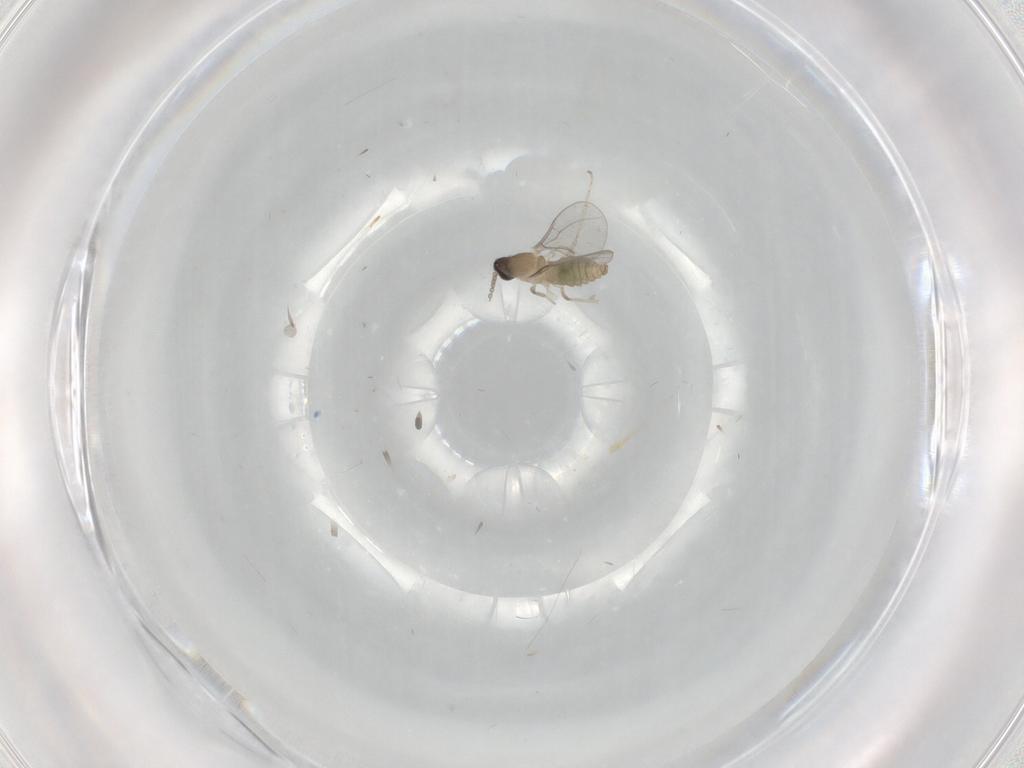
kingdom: Animalia
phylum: Arthropoda
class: Insecta
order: Diptera
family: Cecidomyiidae
